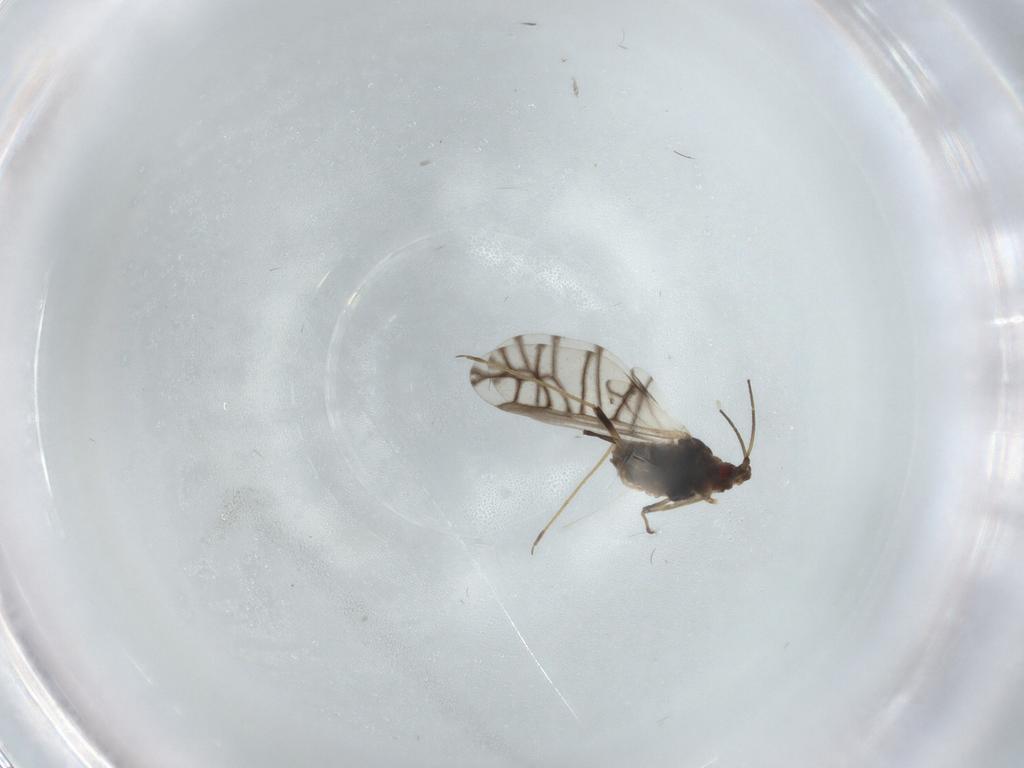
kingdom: Animalia
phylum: Arthropoda
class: Insecta
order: Hemiptera
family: Aphididae
